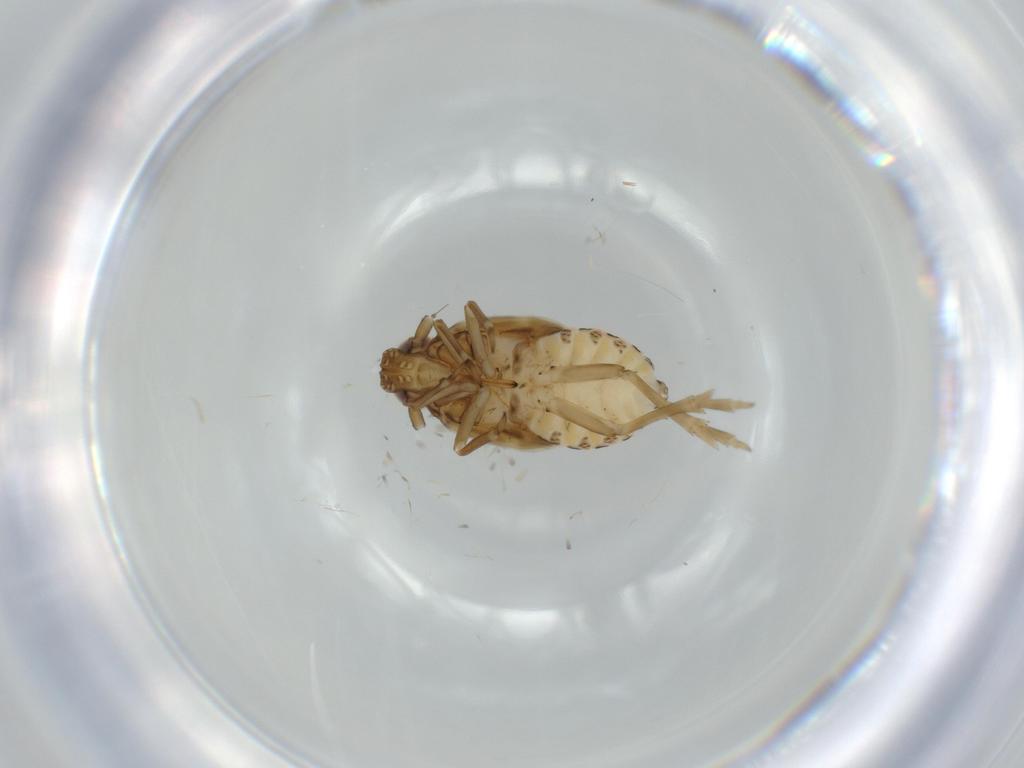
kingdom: Animalia
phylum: Arthropoda
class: Insecta
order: Hemiptera
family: Delphacidae
